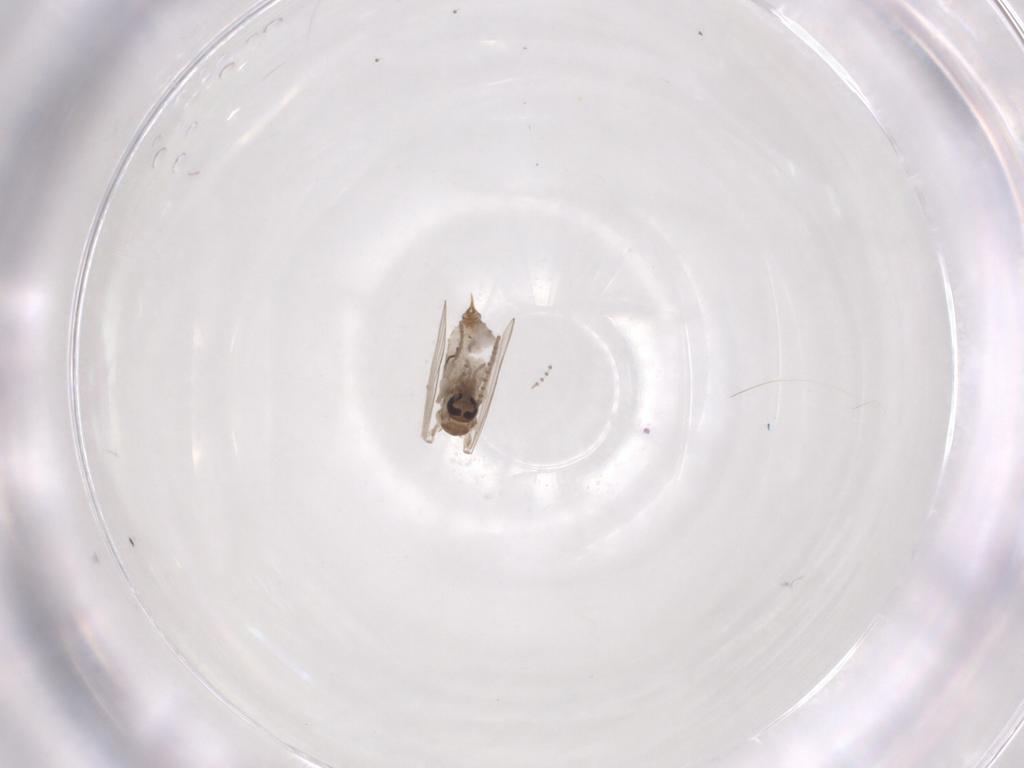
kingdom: Animalia
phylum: Arthropoda
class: Insecta
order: Diptera
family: Psychodidae
